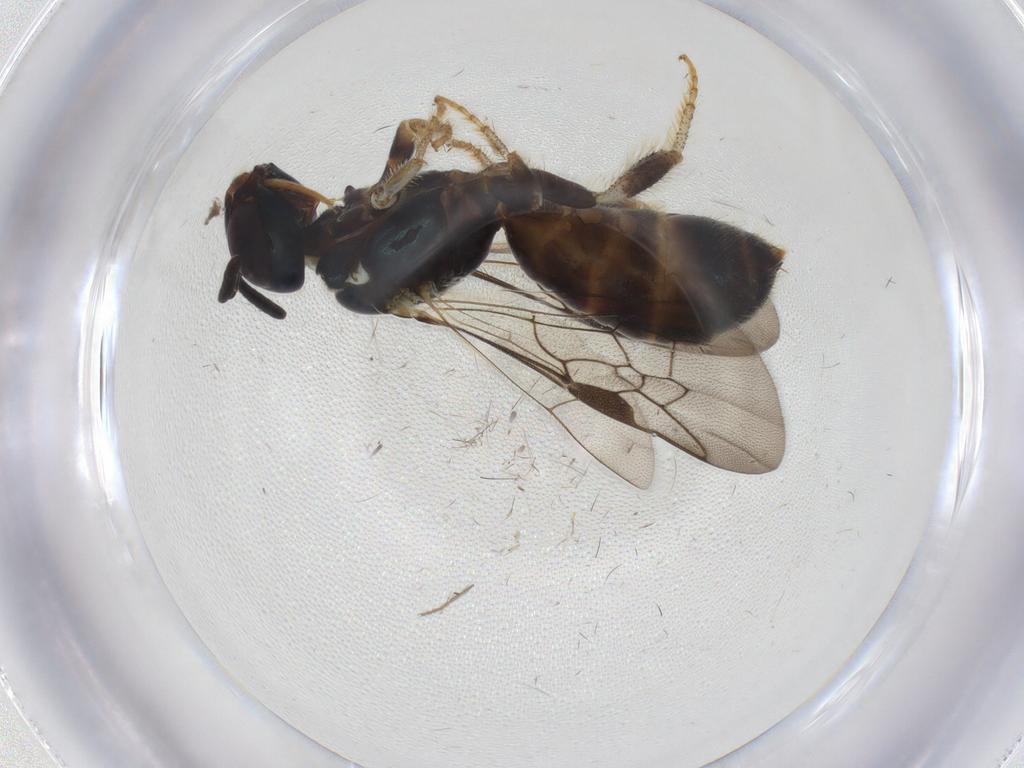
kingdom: Animalia
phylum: Arthropoda
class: Insecta
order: Hymenoptera
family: Apidae
